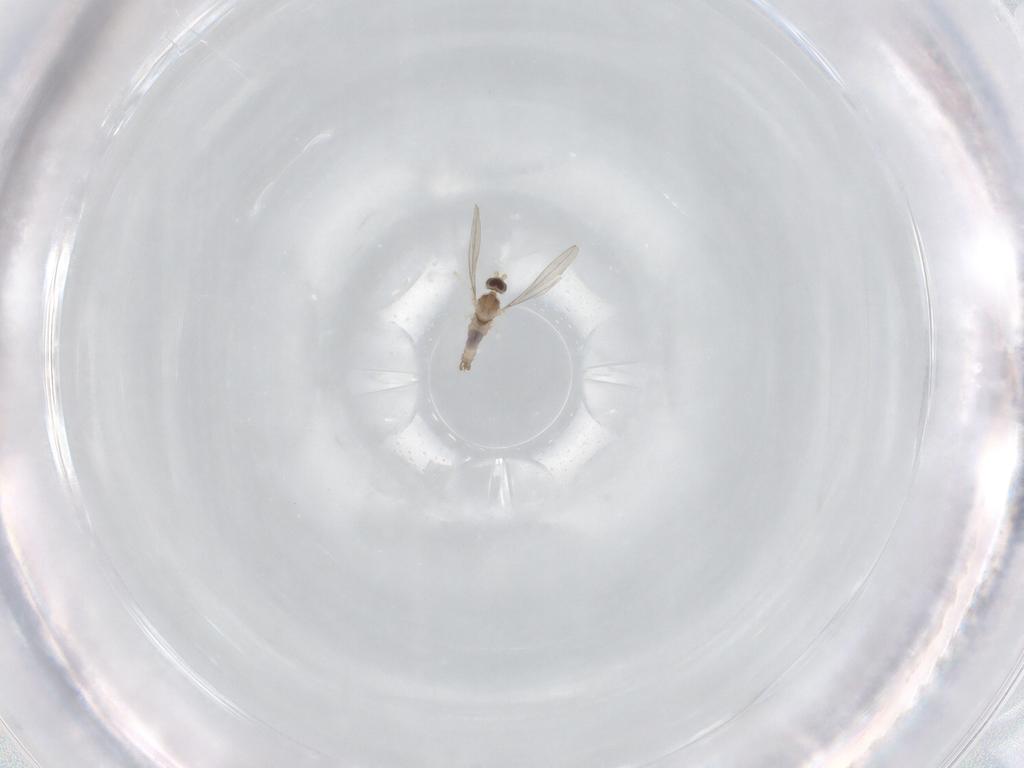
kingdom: Animalia
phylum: Arthropoda
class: Insecta
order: Diptera
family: Cecidomyiidae
